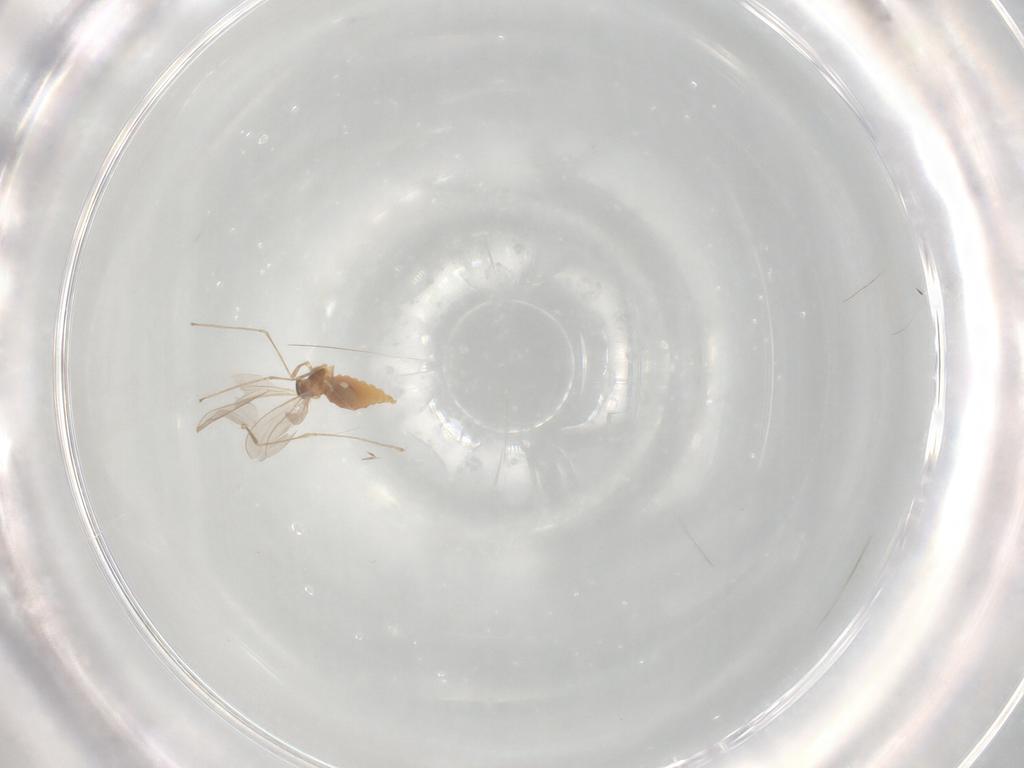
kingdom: Animalia
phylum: Arthropoda
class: Insecta
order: Diptera
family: Cecidomyiidae
